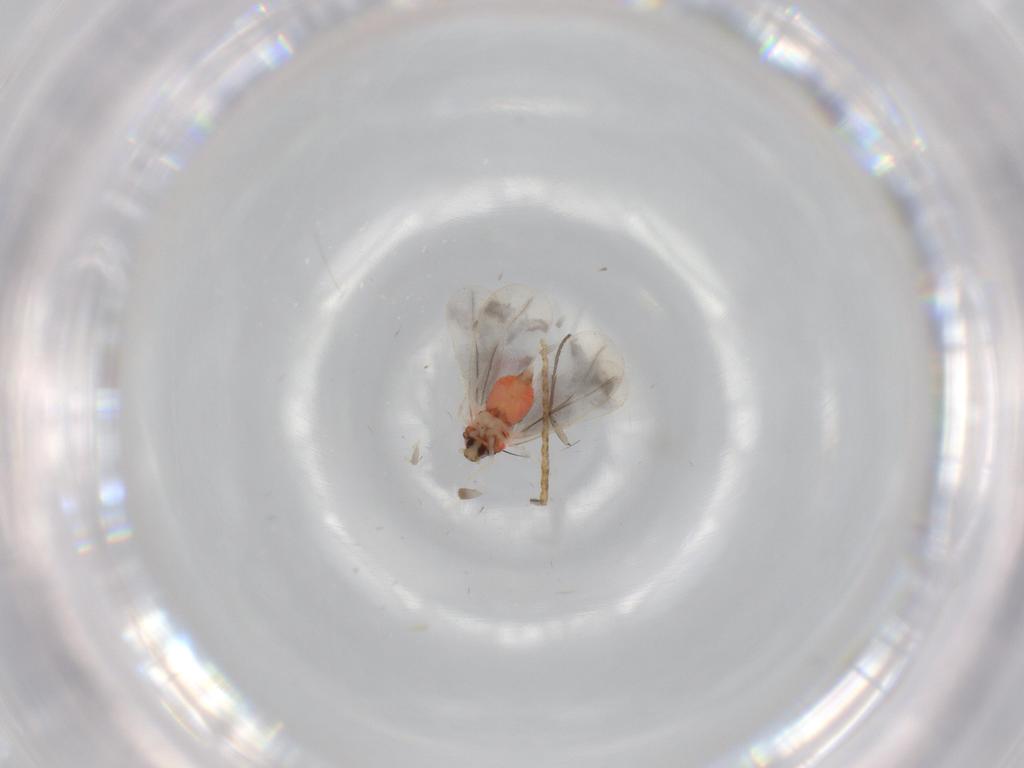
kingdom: Animalia
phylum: Arthropoda
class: Insecta
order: Hemiptera
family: Aleyrodidae
